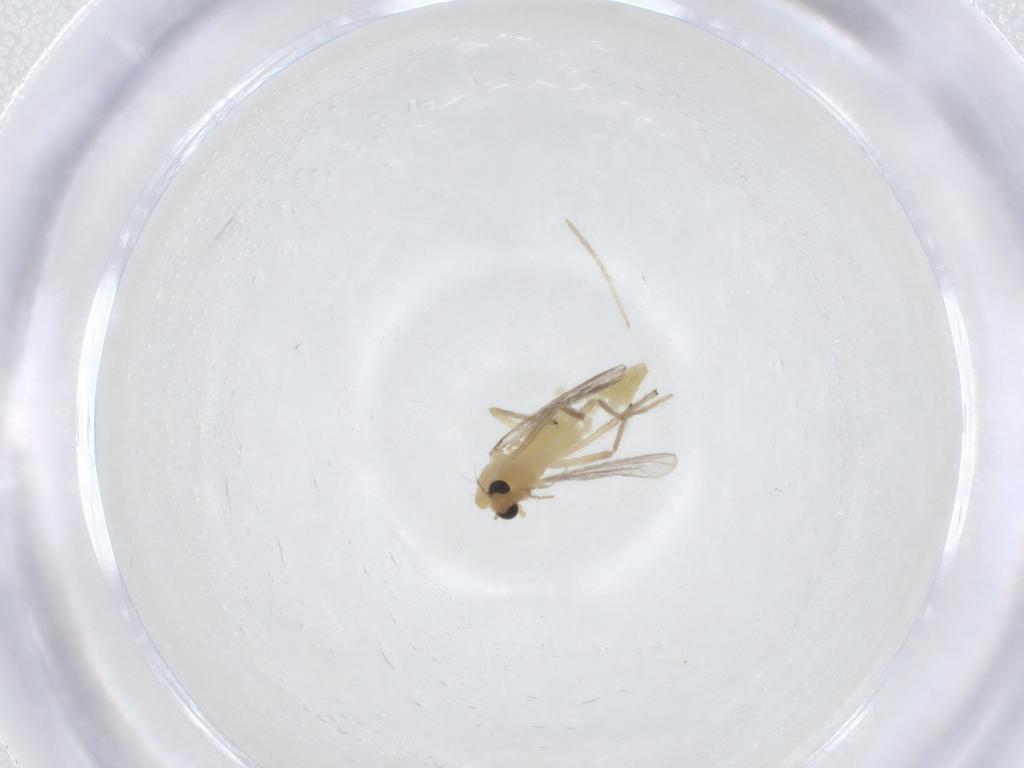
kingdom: Animalia
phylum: Arthropoda
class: Insecta
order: Diptera
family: Chironomidae
